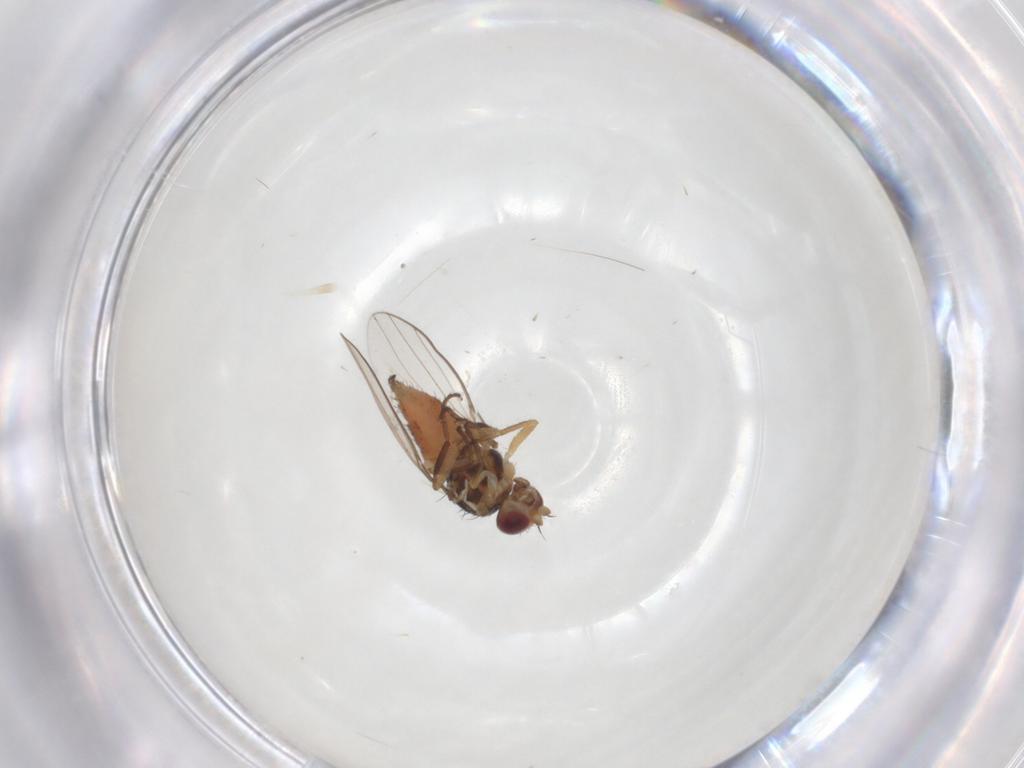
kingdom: Animalia
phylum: Arthropoda
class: Insecta
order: Diptera
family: Chloropidae
